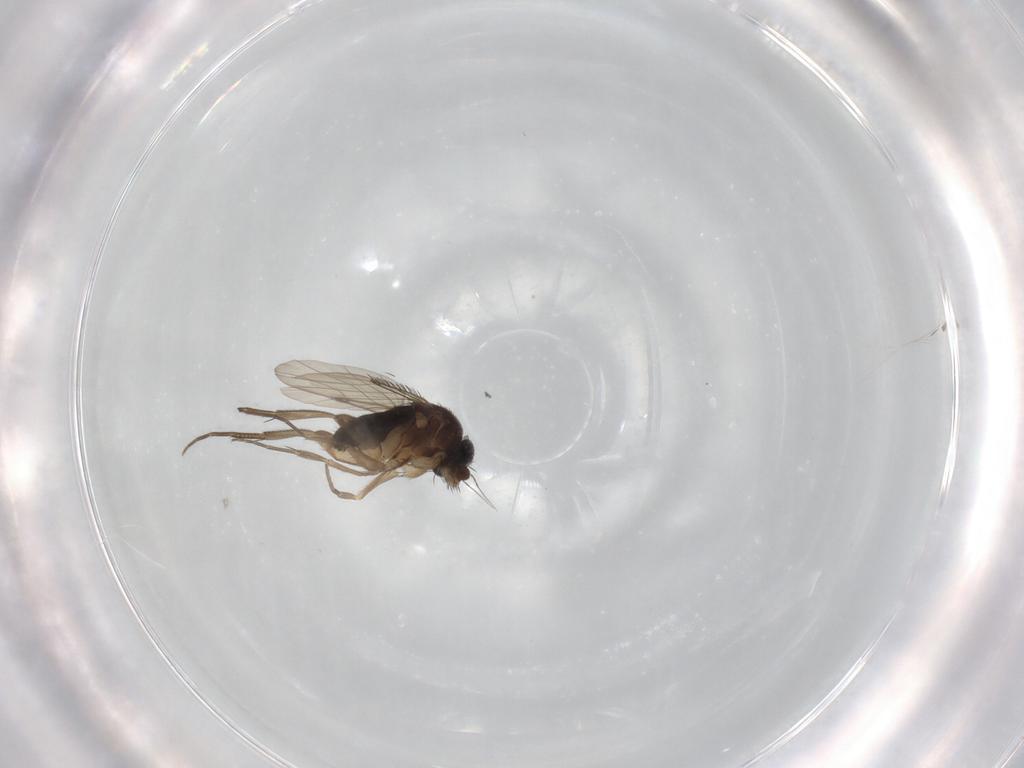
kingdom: Animalia
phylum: Arthropoda
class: Insecta
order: Diptera
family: Phoridae
